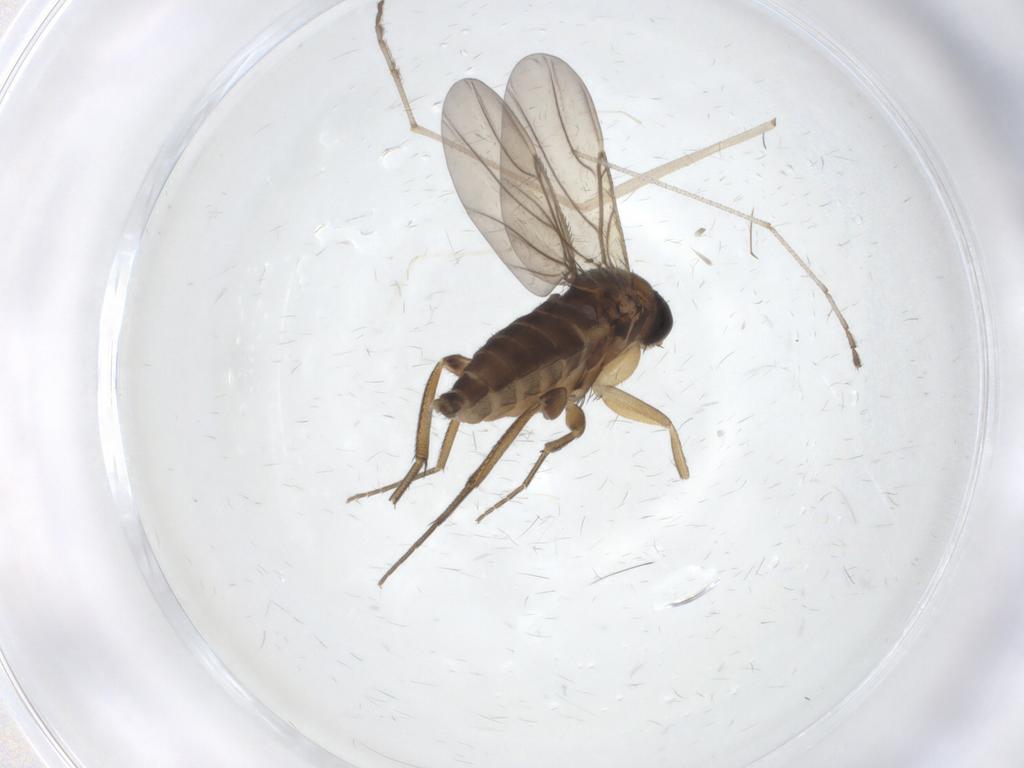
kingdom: Animalia
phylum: Arthropoda
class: Insecta
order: Diptera
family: Phoridae
